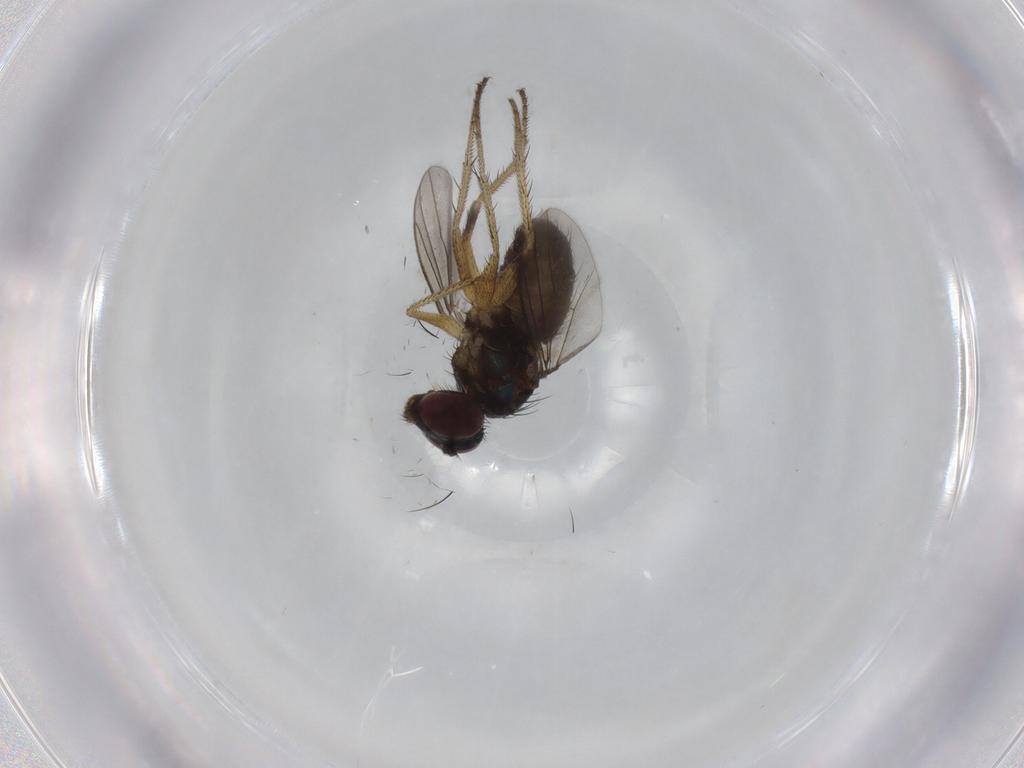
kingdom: Animalia
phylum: Arthropoda
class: Insecta
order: Diptera
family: Dolichopodidae
